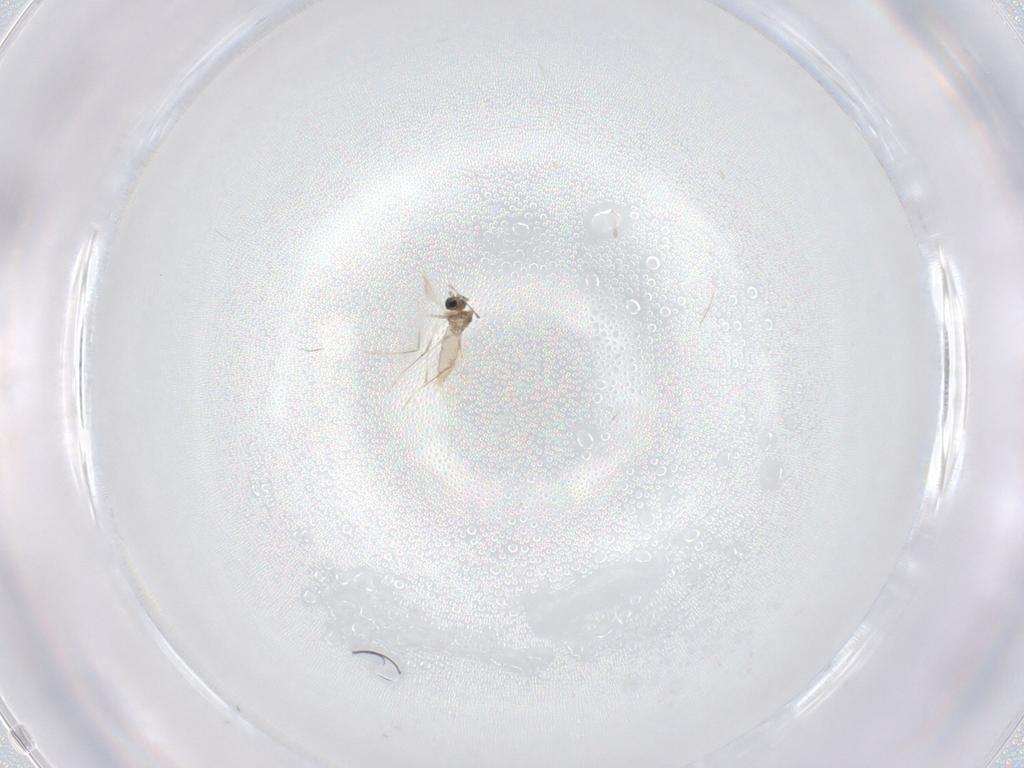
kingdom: Animalia
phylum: Arthropoda
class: Insecta
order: Diptera
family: Cecidomyiidae
